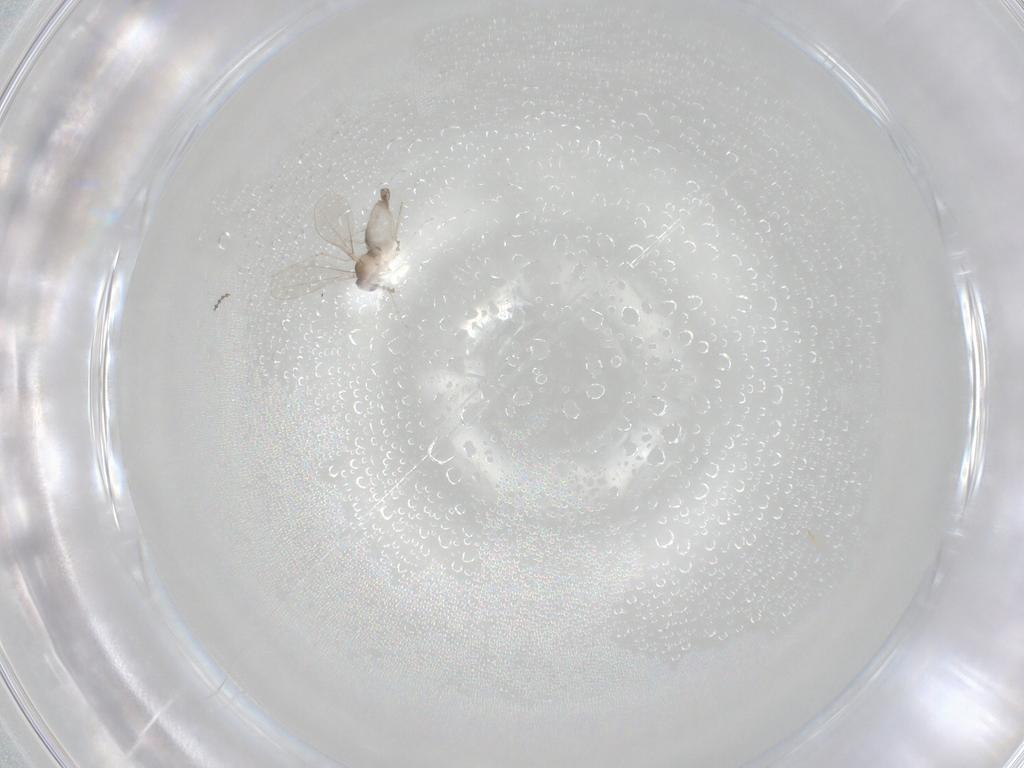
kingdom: Animalia
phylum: Arthropoda
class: Insecta
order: Diptera
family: Cecidomyiidae
